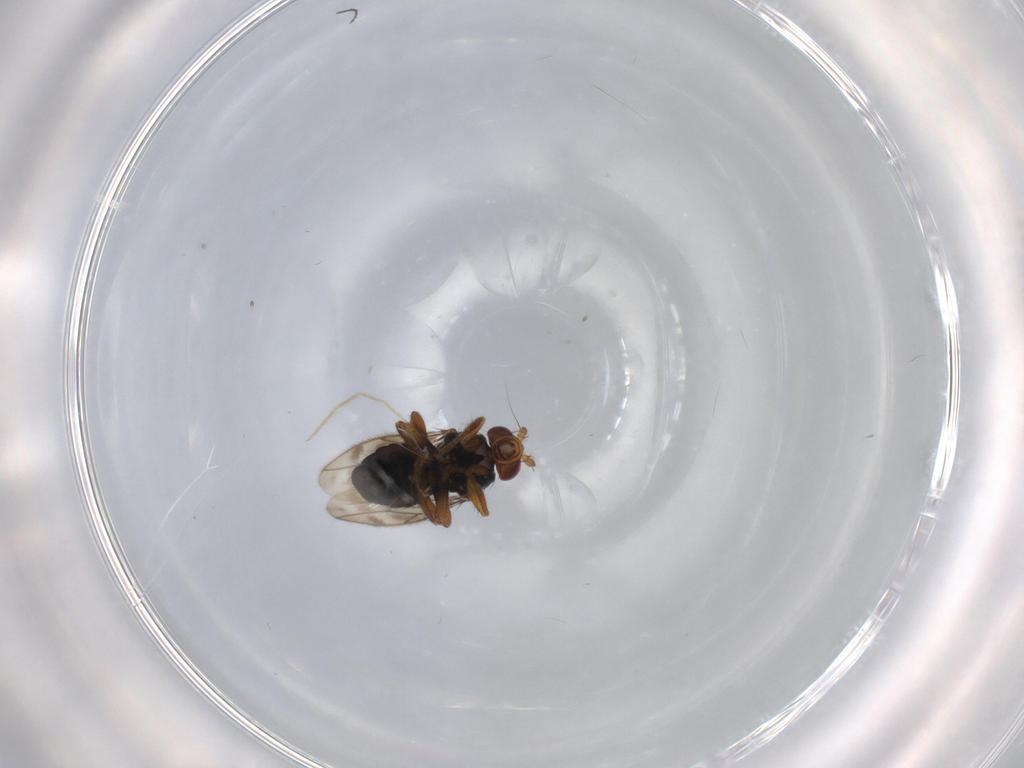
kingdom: Animalia
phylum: Arthropoda
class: Insecta
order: Diptera
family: Sphaeroceridae
